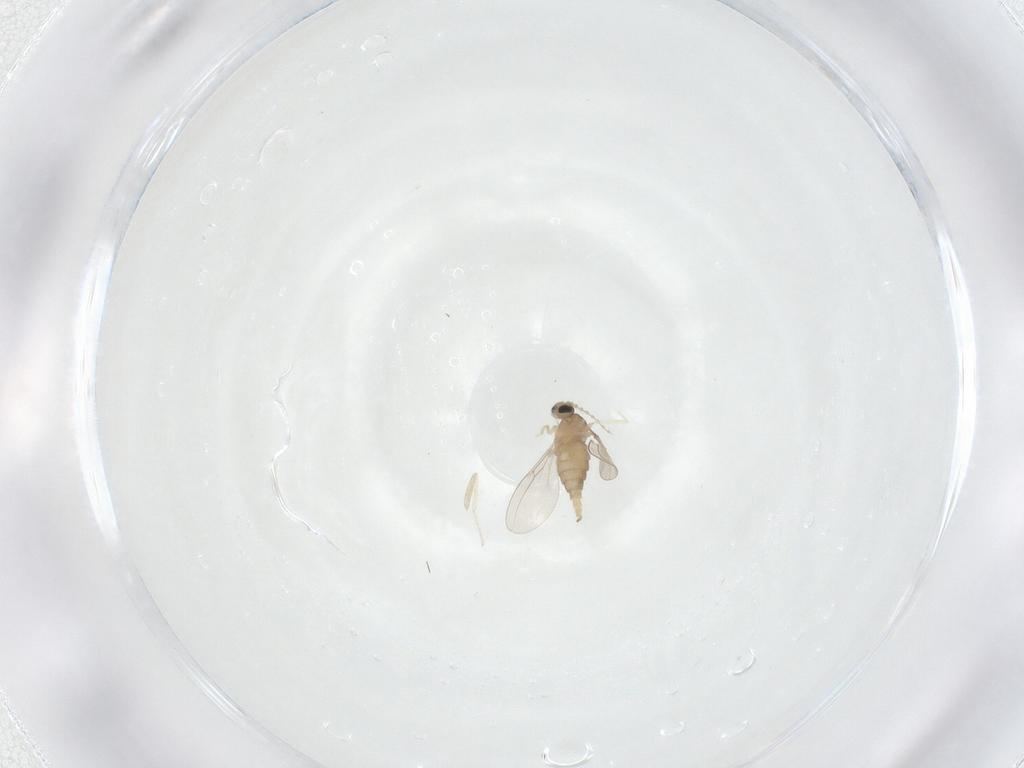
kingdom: Animalia
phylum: Arthropoda
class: Insecta
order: Diptera
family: Cecidomyiidae
